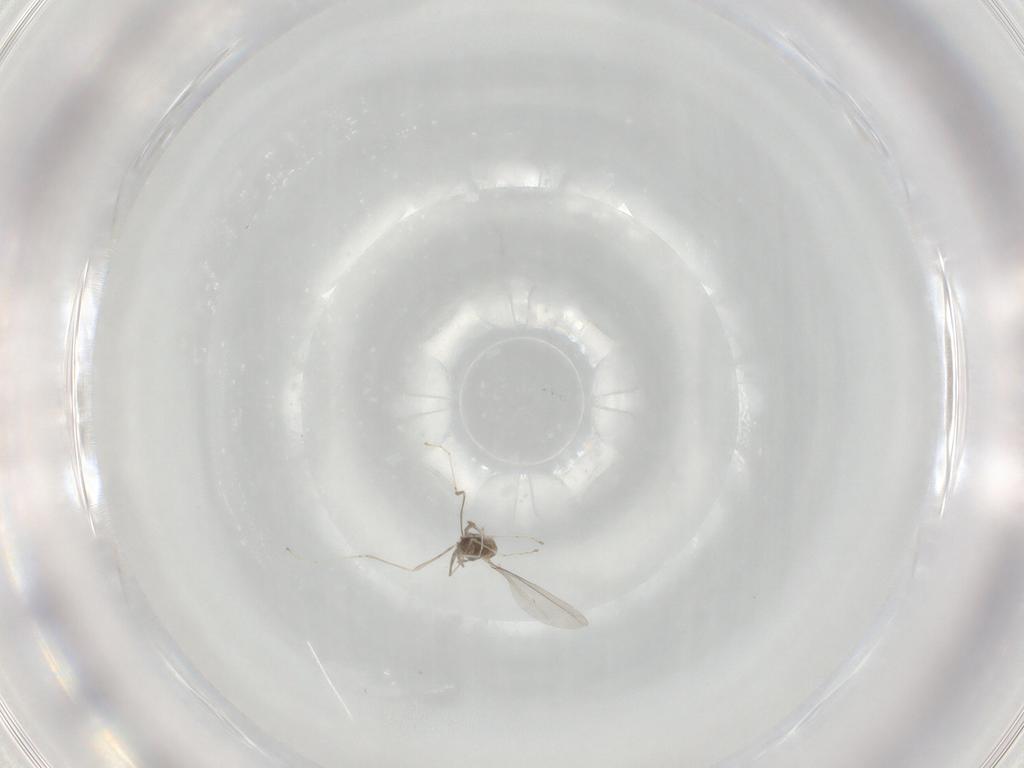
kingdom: Animalia
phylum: Arthropoda
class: Insecta
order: Diptera
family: Cecidomyiidae
